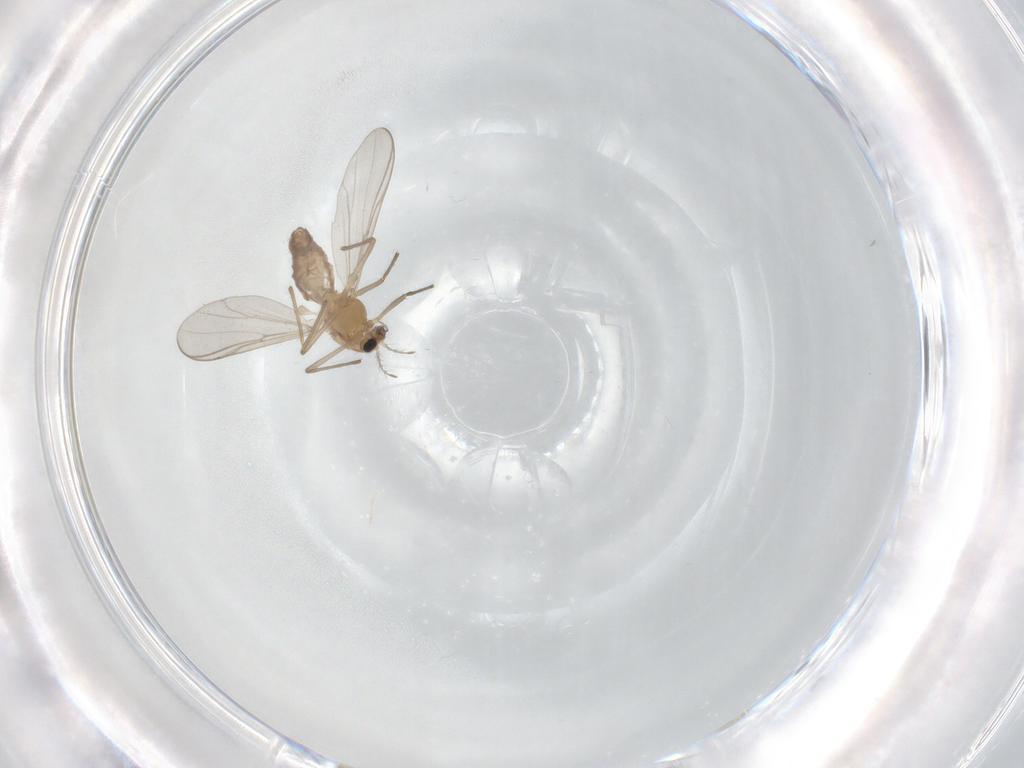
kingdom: Animalia
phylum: Arthropoda
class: Insecta
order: Diptera
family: Chironomidae
